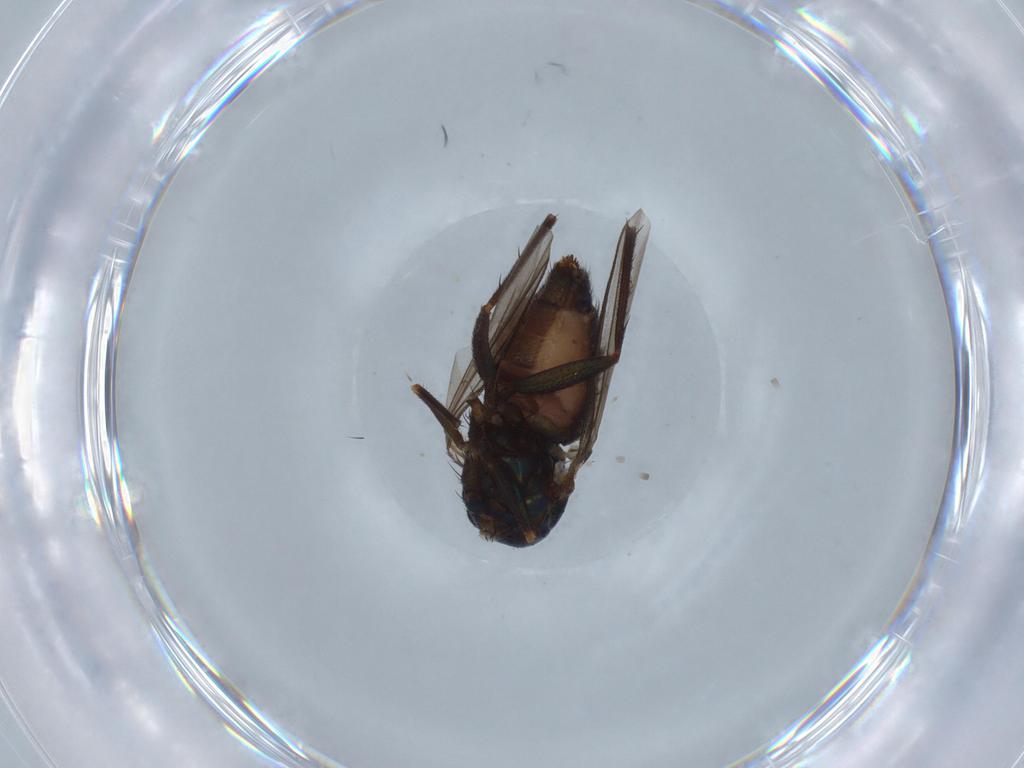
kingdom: Animalia
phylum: Arthropoda
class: Insecta
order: Diptera
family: Dolichopodidae
